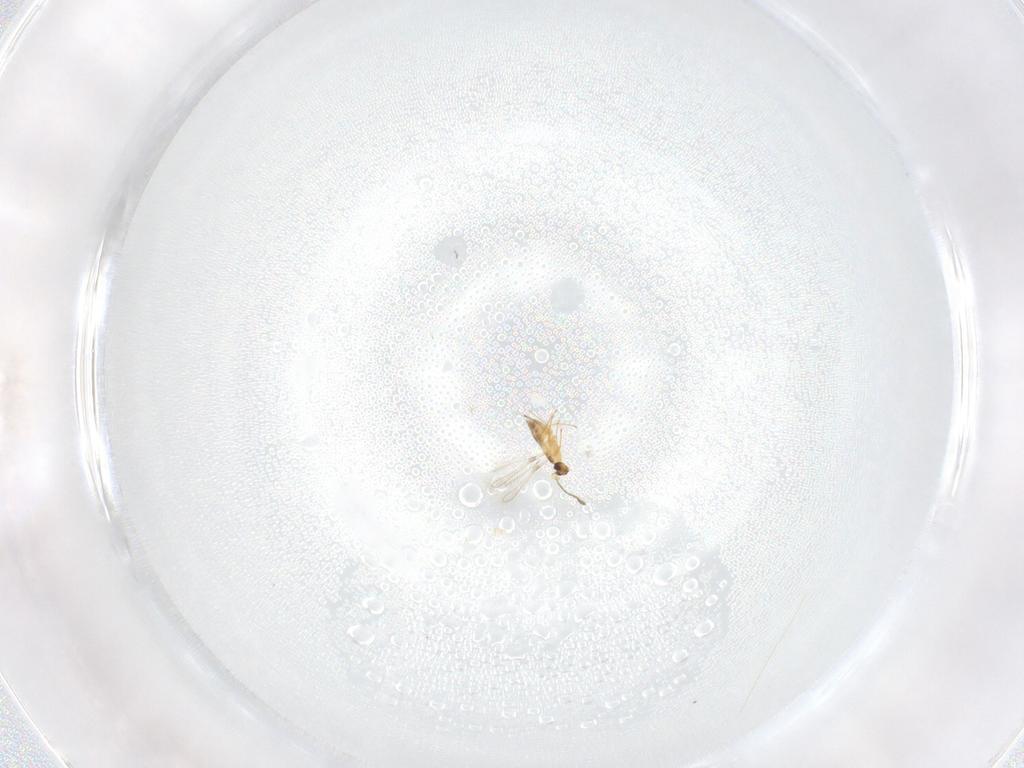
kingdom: Animalia
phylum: Arthropoda
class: Insecta
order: Hymenoptera
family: Mymaridae
